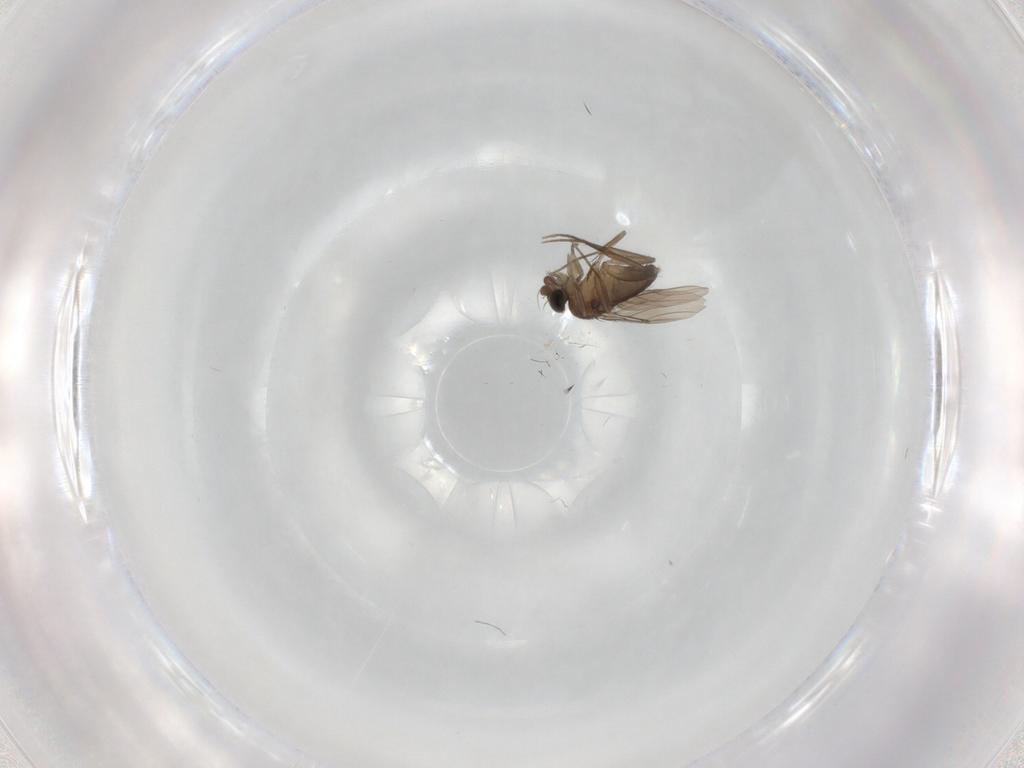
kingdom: Animalia
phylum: Arthropoda
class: Insecta
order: Diptera
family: Phoridae
